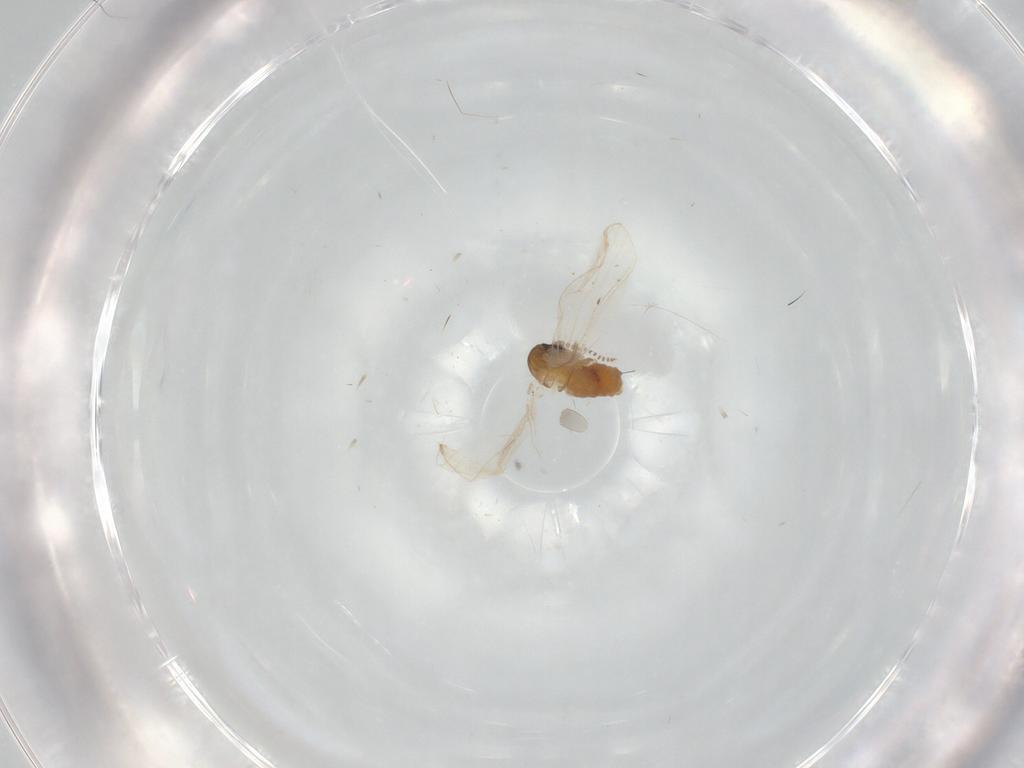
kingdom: Animalia
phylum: Arthropoda
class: Insecta
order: Diptera
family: Psychodidae
